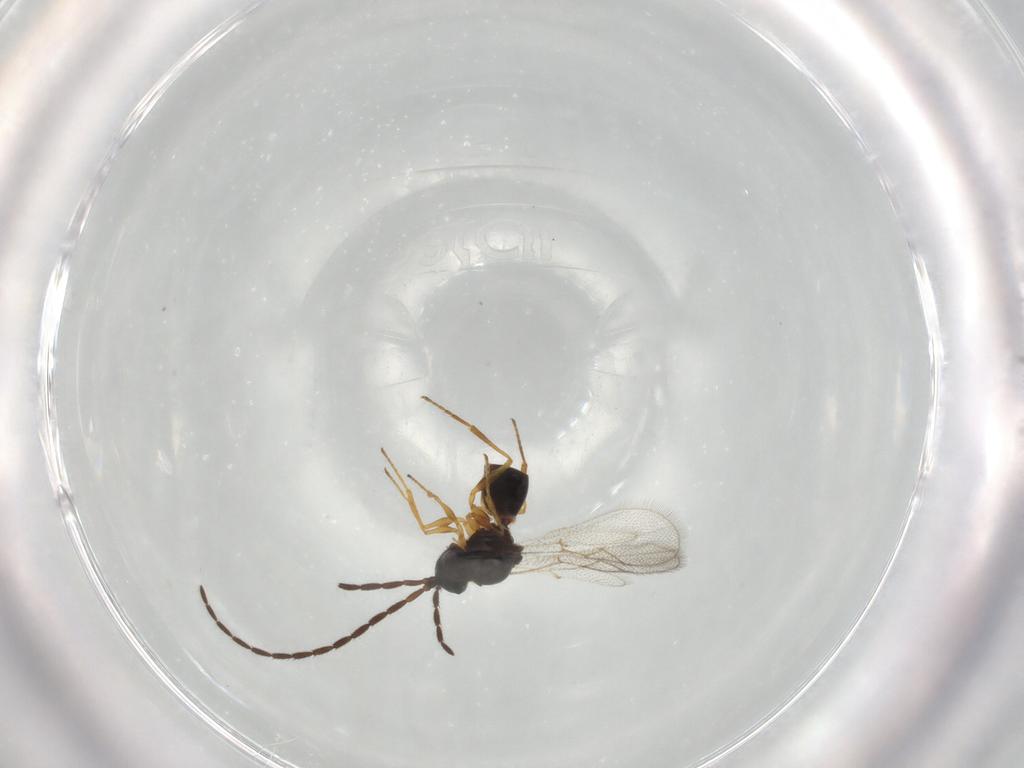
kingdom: Animalia
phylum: Arthropoda
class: Insecta
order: Hymenoptera
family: Figitidae
